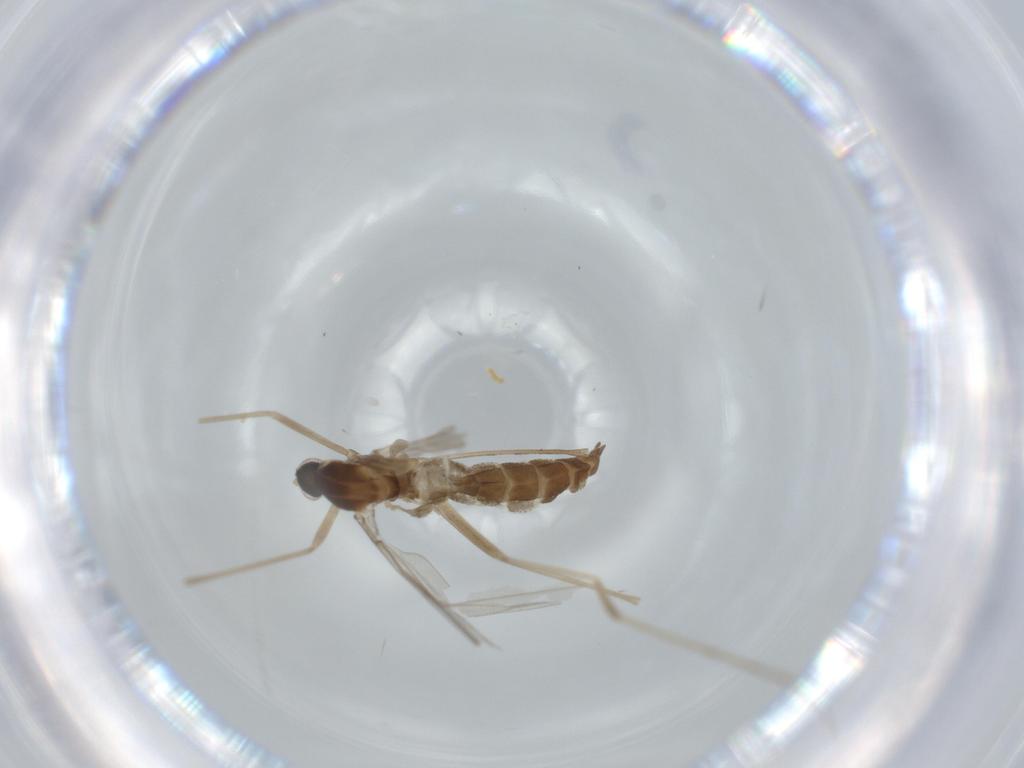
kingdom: Animalia
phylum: Arthropoda
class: Insecta
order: Diptera
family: Cecidomyiidae
